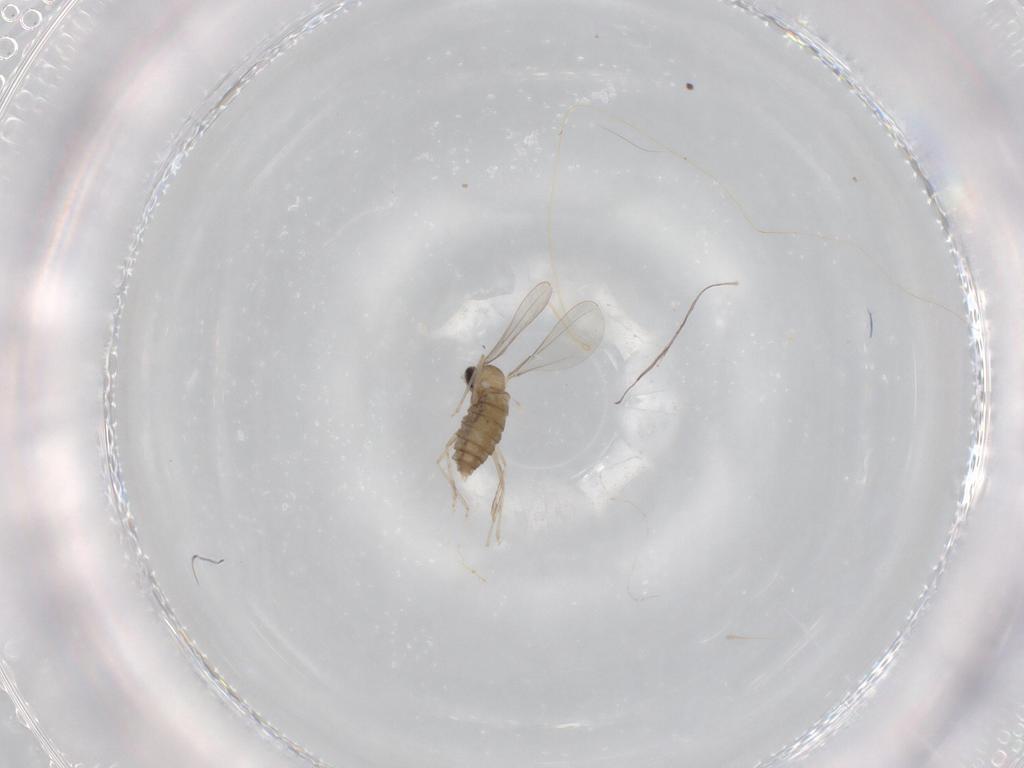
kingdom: Animalia
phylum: Arthropoda
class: Insecta
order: Diptera
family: Cecidomyiidae
